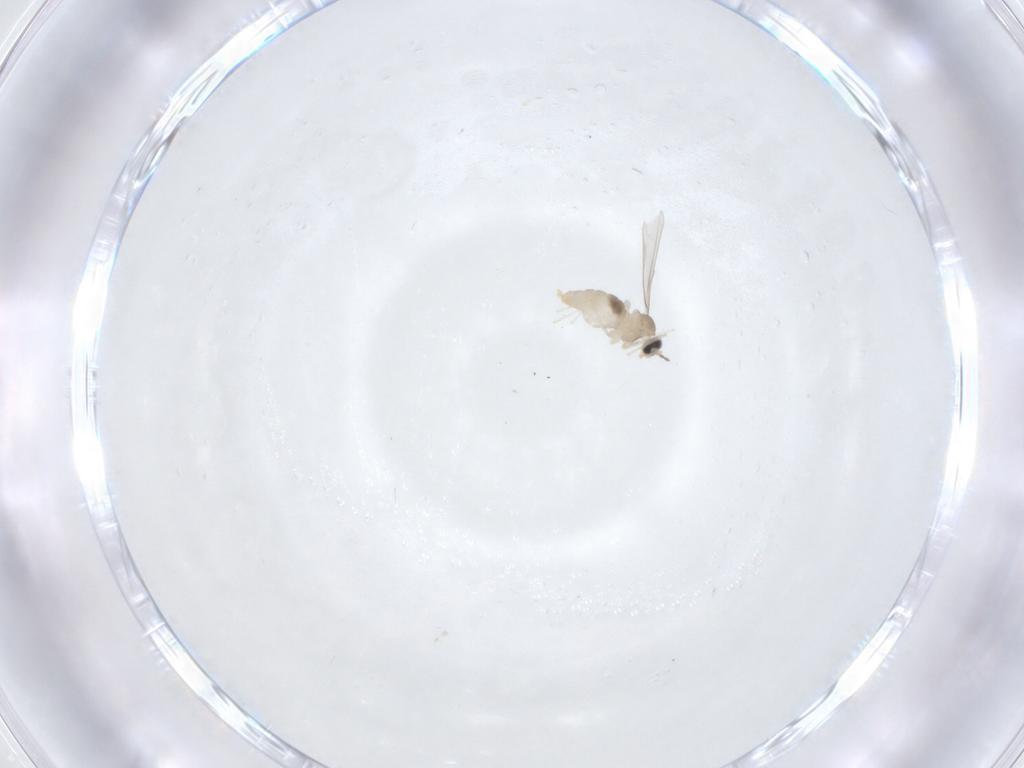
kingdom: Animalia
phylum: Arthropoda
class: Insecta
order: Diptera
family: Cecidomyiidae
